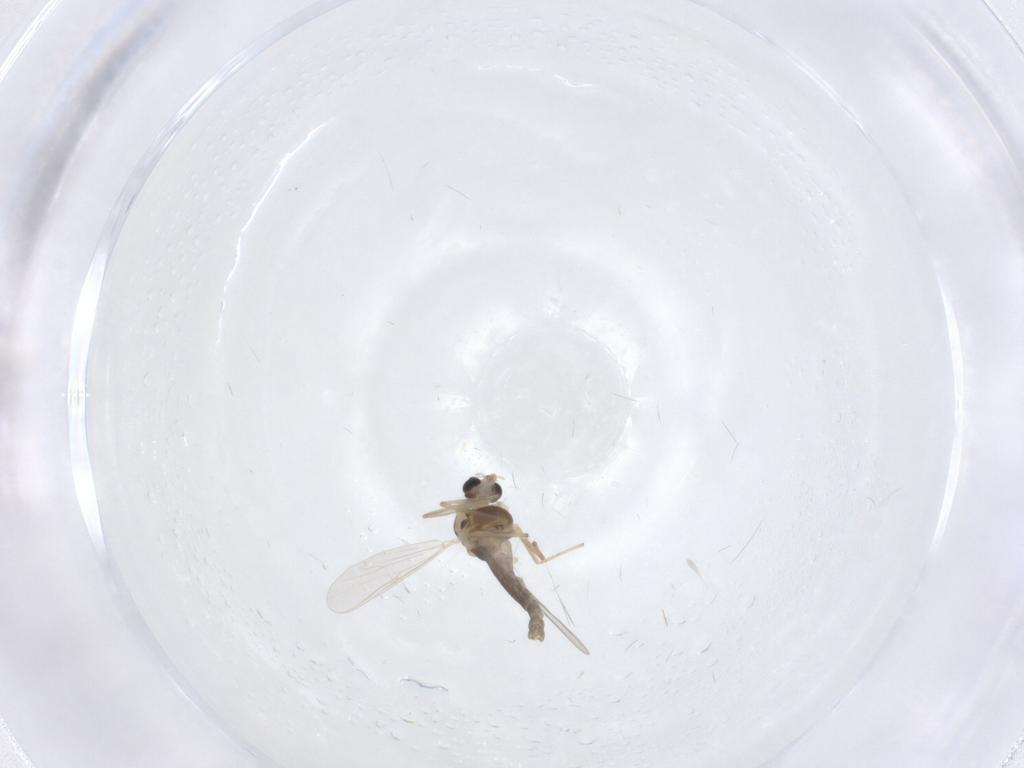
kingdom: Animalia
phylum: Arthropoda
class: Insecta
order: Diptera
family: Chironomidae
